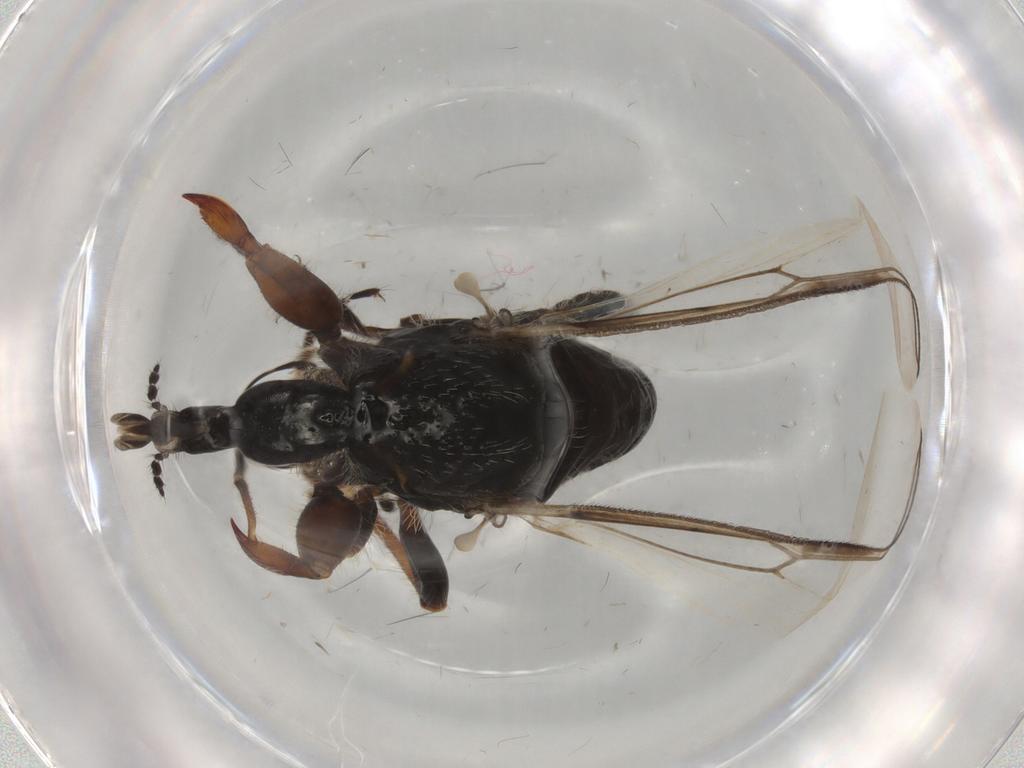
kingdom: Animalia
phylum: Arthropoda
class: Insecta
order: Diptera
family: Bibionidae
